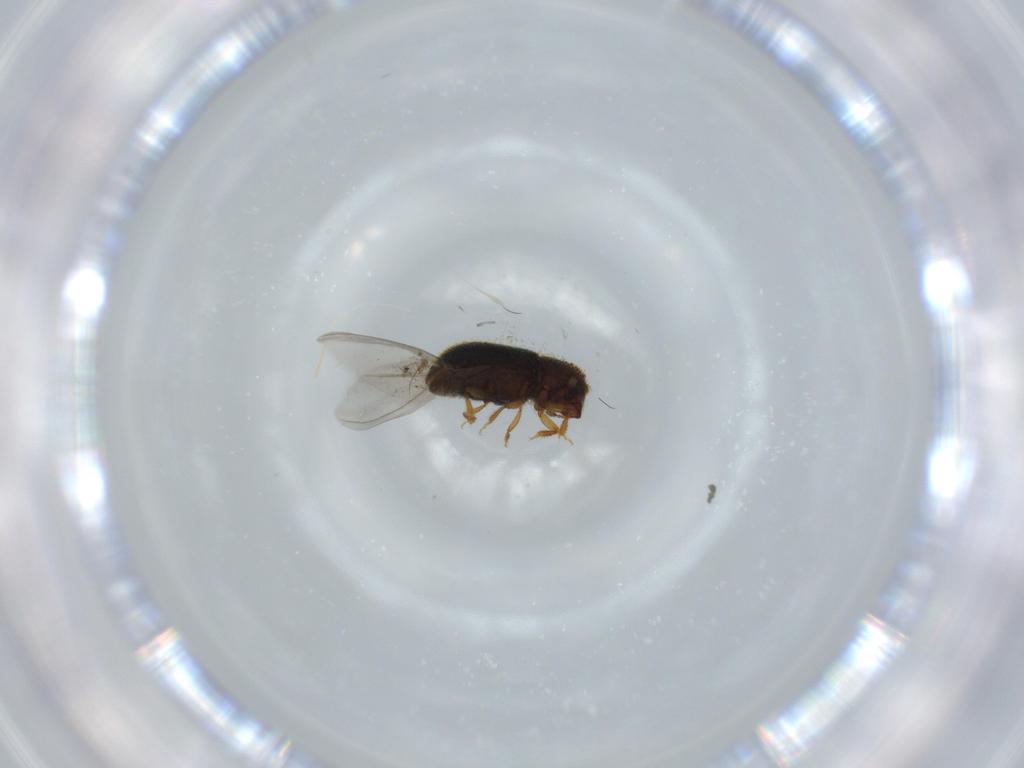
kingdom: Animalia
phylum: Arthropoda
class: Insecta
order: Coleoptera
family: Curculionidae
